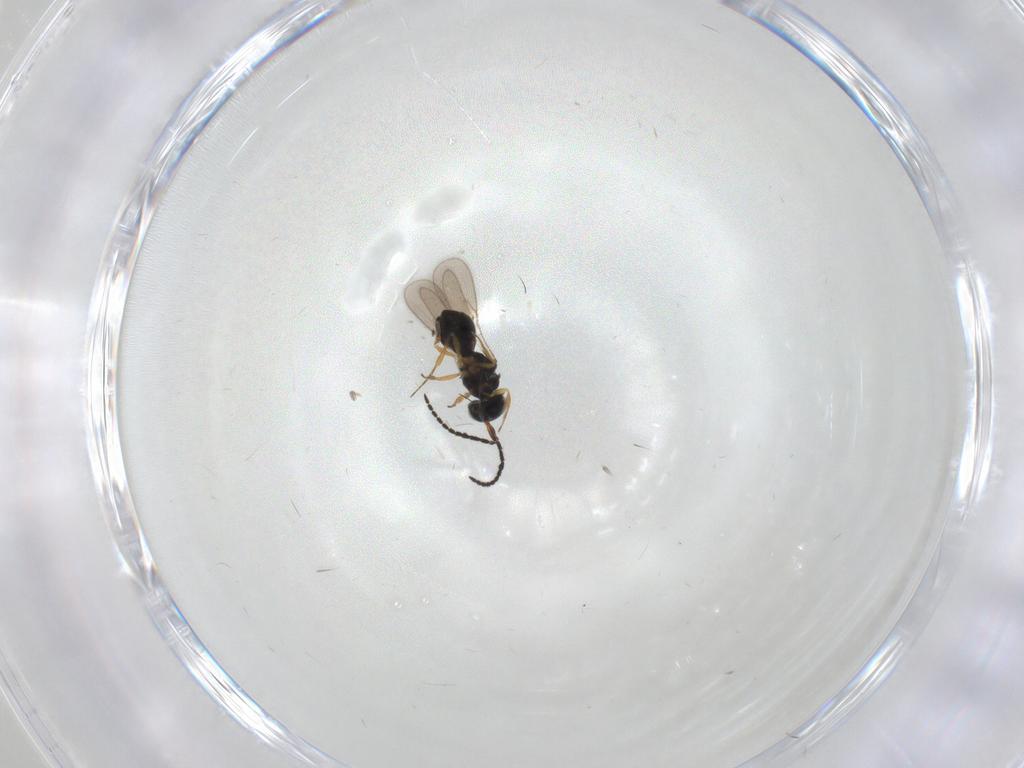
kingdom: Animalia
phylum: Arthropoda
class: Insecta
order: Hymenoptera
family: Scelionidae
